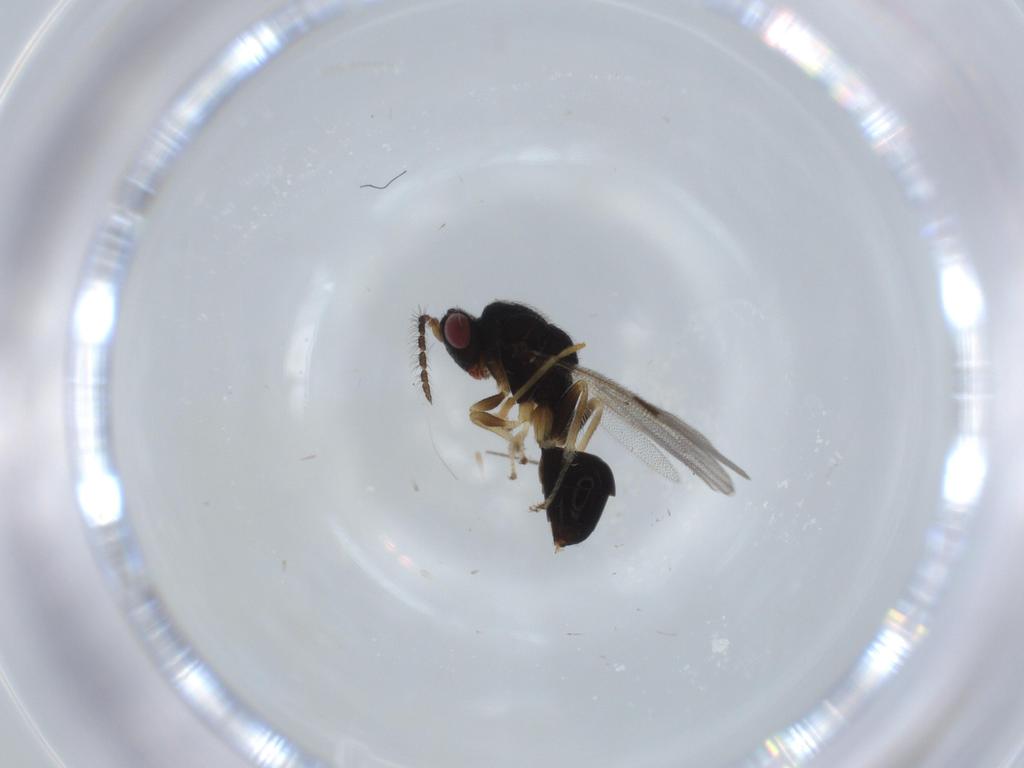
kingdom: Animalia
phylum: Arthropoda
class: Insecta
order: Hymenoptera
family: Pompilidae
